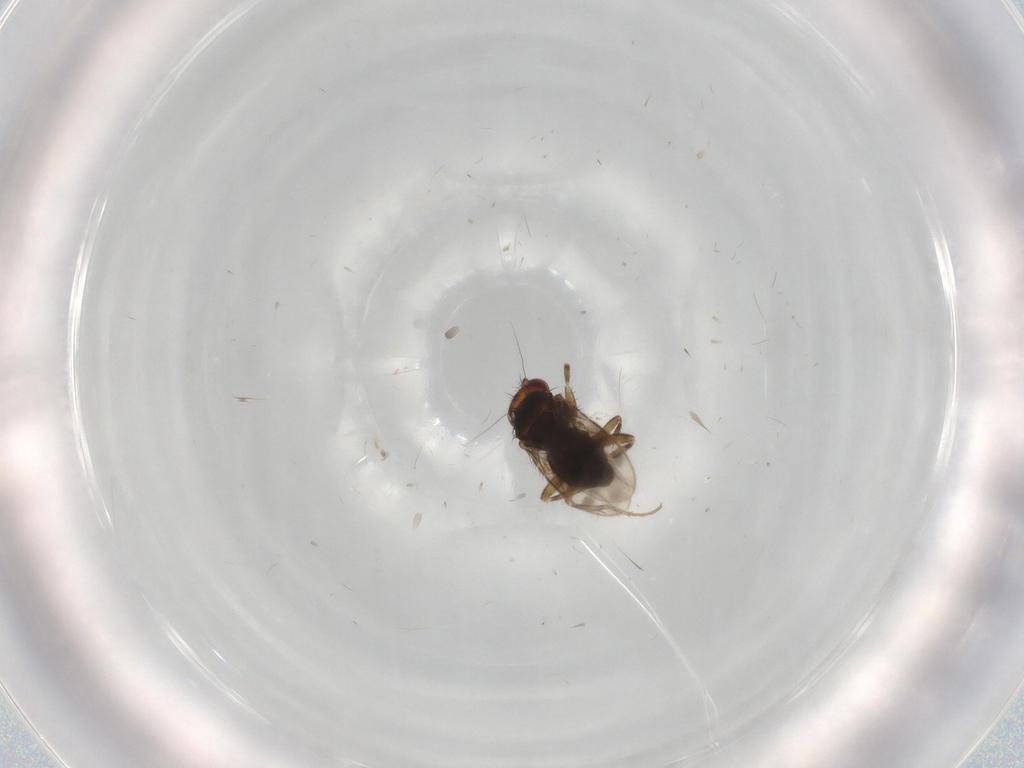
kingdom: Animalia
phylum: Arthropoda
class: Insecta
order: Diptera
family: Sphaeroceridae
